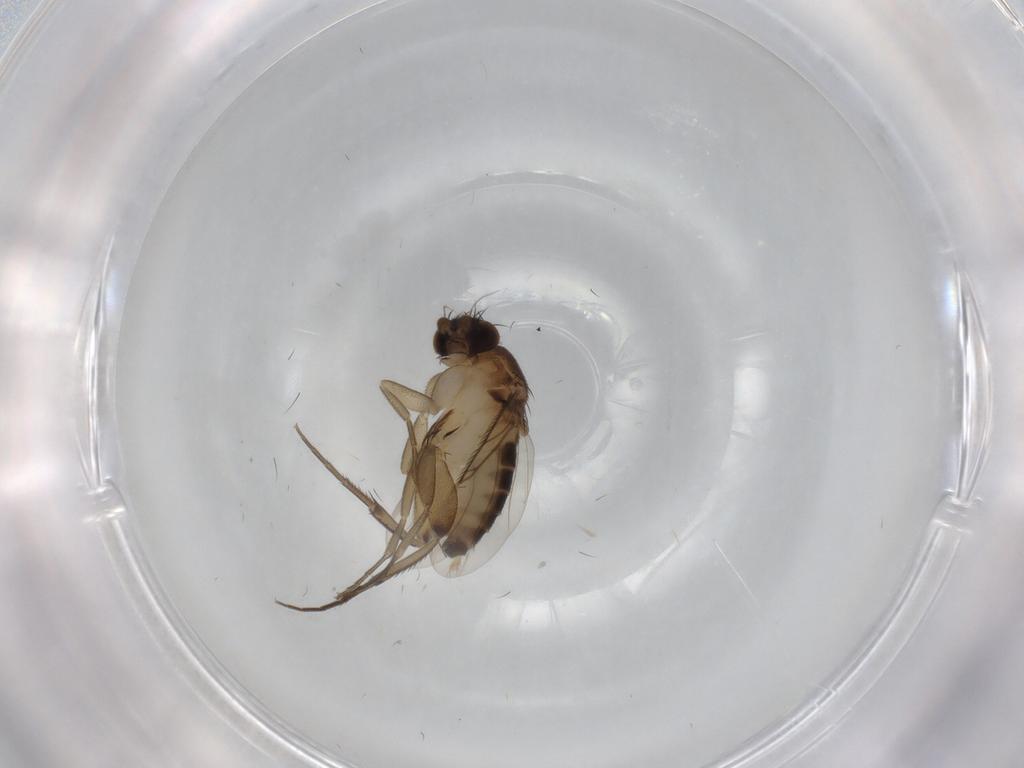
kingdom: Animalia
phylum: Arthropoda
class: Insecta
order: Diptera
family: Phoridae
